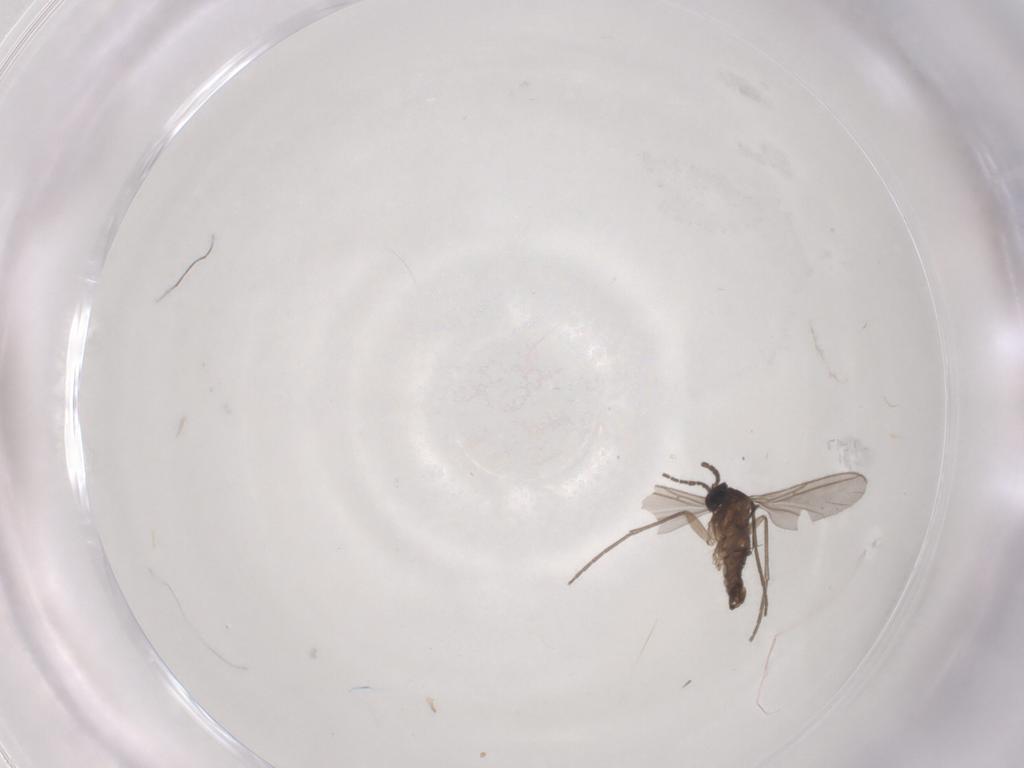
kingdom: Animalia
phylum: Arthropoda
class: Insecta
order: Diptera
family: Sciaridae
